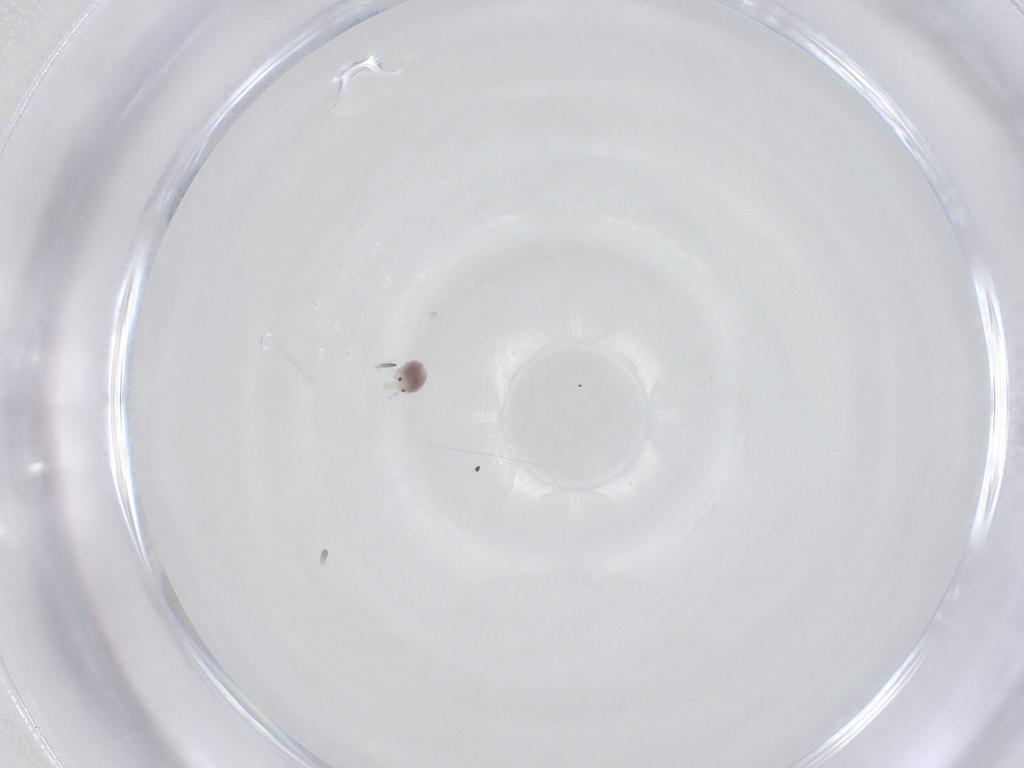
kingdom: Animalia
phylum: Arthropoda
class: Arachnida
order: Trombidiformes
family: Pionidae
